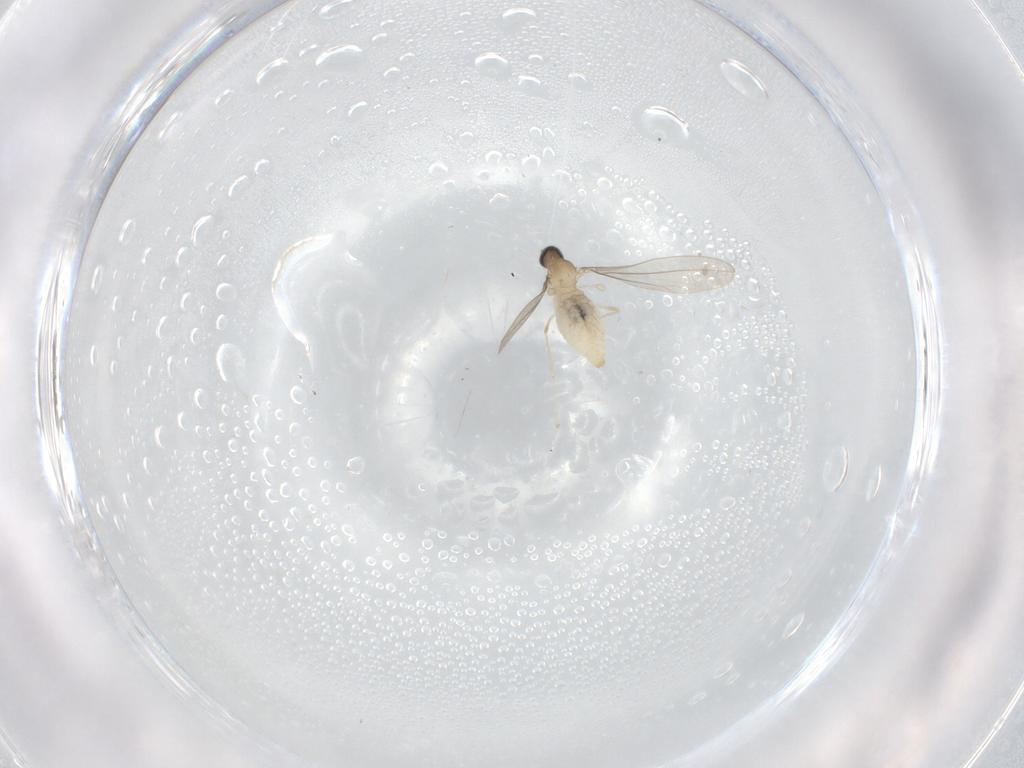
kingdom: Animalia
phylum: Arthropoda
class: Insecta
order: Diptera
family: Cecidomyiidae
